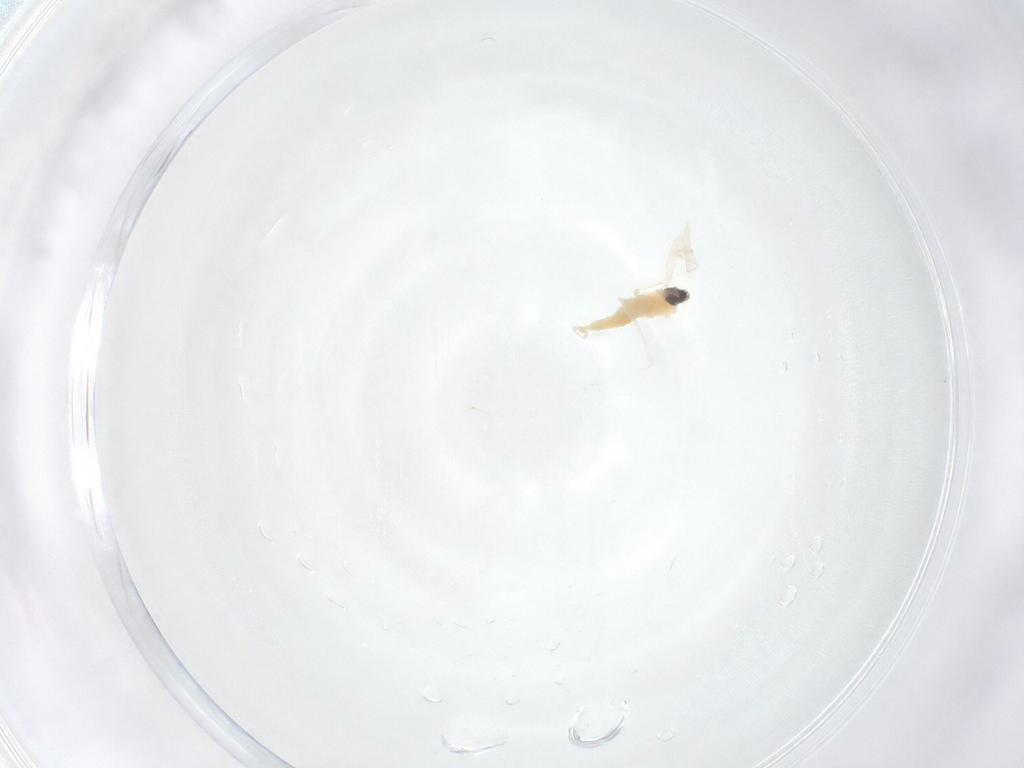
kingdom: Animalia
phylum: Arthropoda
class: Insecta
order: Diptera
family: Cecidomyiidae
